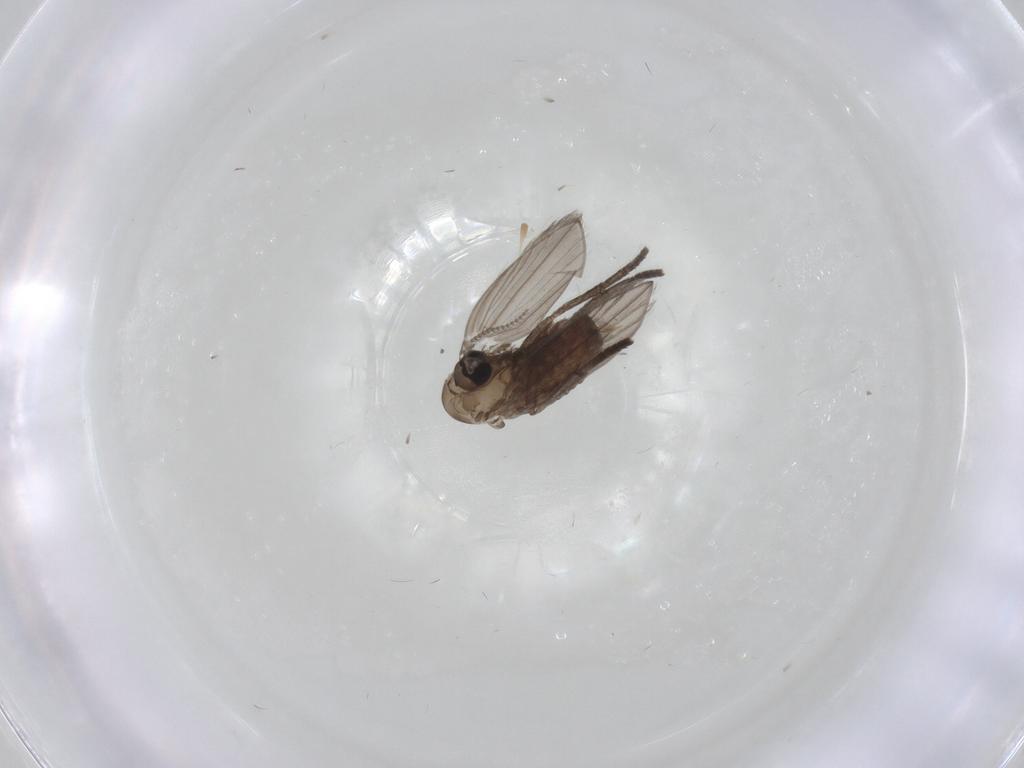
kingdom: Animalia
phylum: Arthropoda
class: Insecta
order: Diptera
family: Psychodidae
